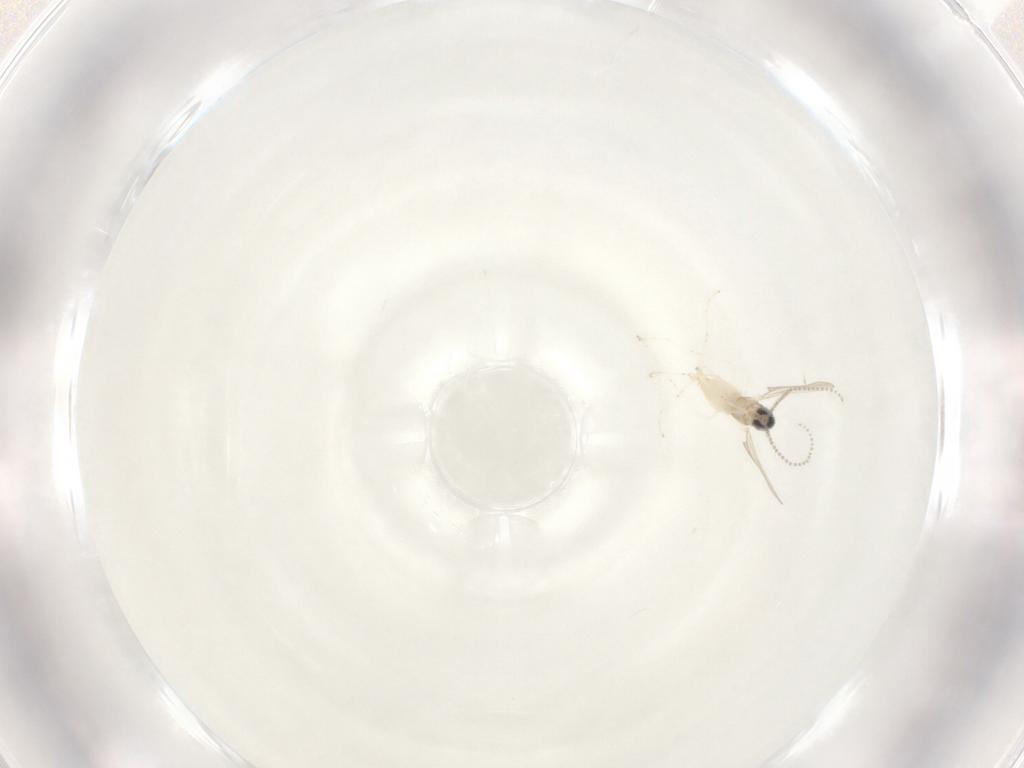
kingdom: Animalia
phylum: Arthropoda
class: Insecta
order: Diptera
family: Cecidomyiidae
